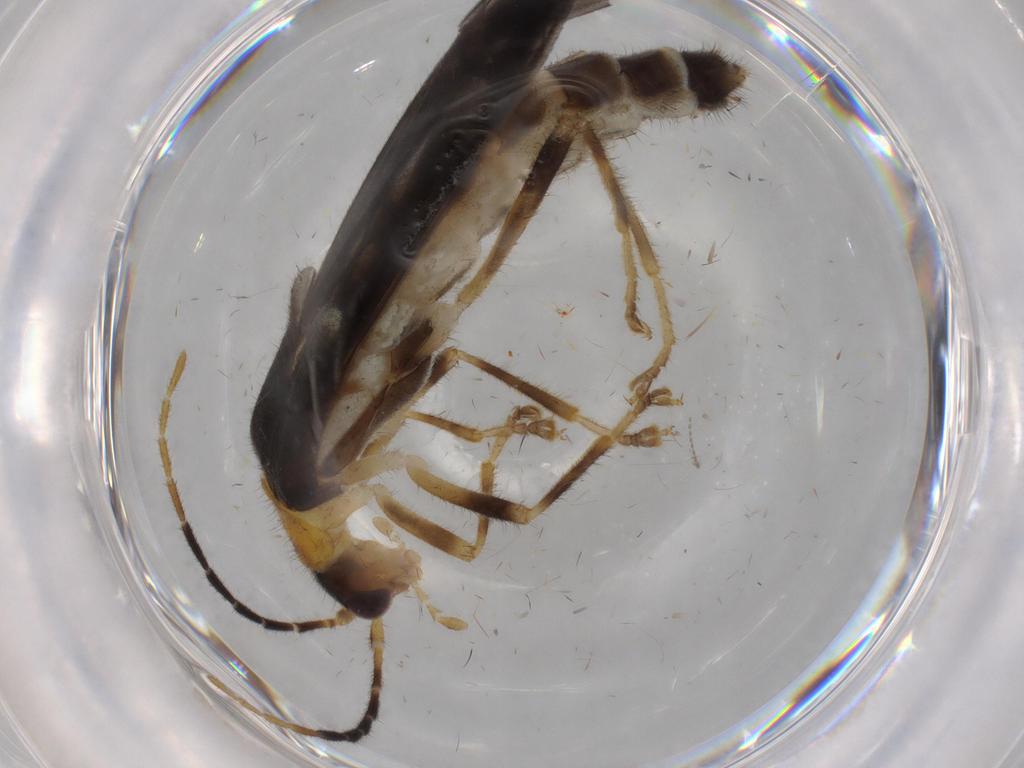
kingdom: Animalia
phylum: Arthropoda
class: Insecta
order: Coleoptera
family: Cantharidae
